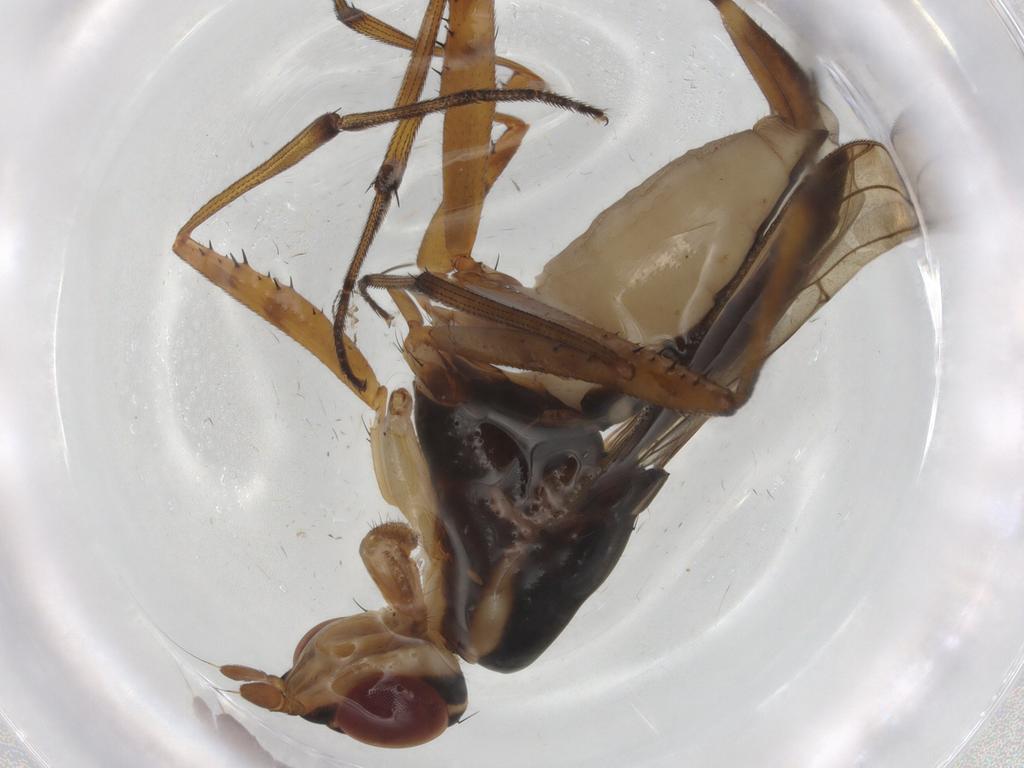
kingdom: Animalia
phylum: Arthropoda
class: Insecta
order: Diptera
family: Neriidae
